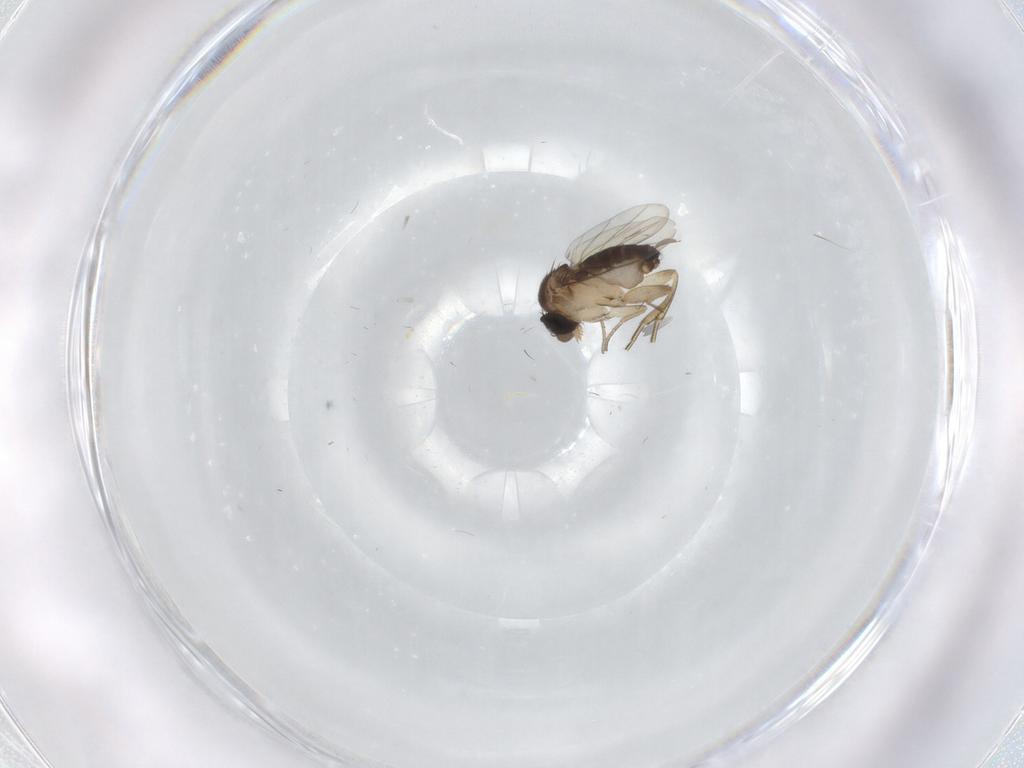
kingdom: Animalia
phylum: Arthropoda
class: Insecta
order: Diptera
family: Phoridae
